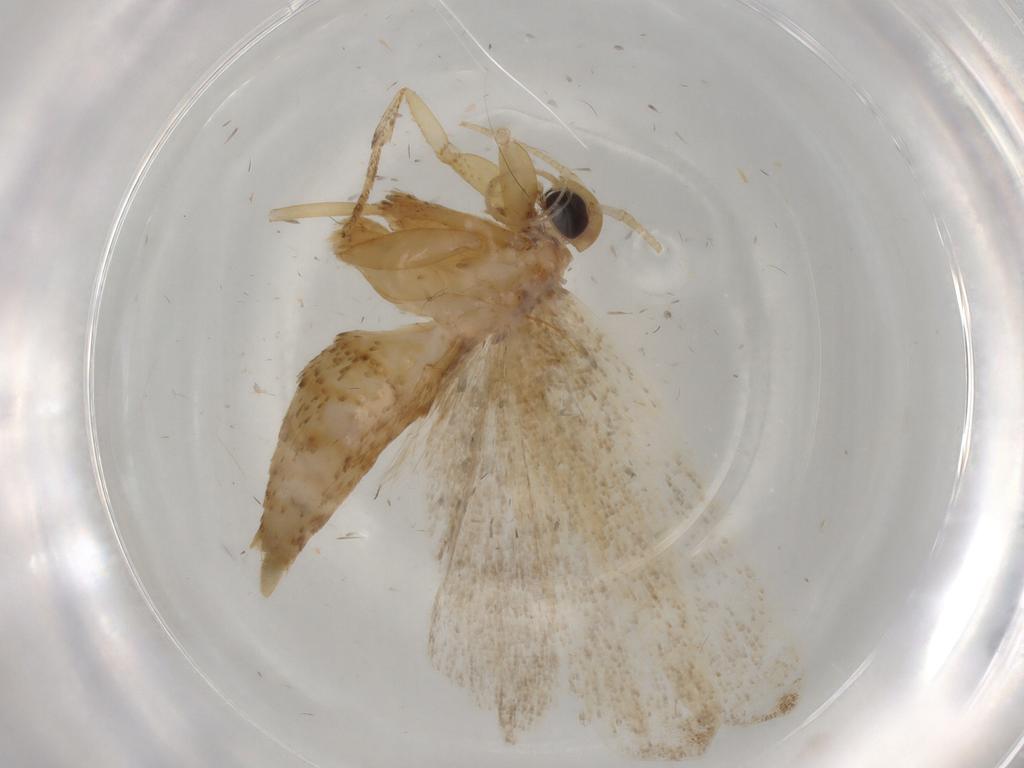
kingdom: Animalia
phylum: Arthropoda
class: Insecta
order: Lepidoptera
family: Autostichidae
